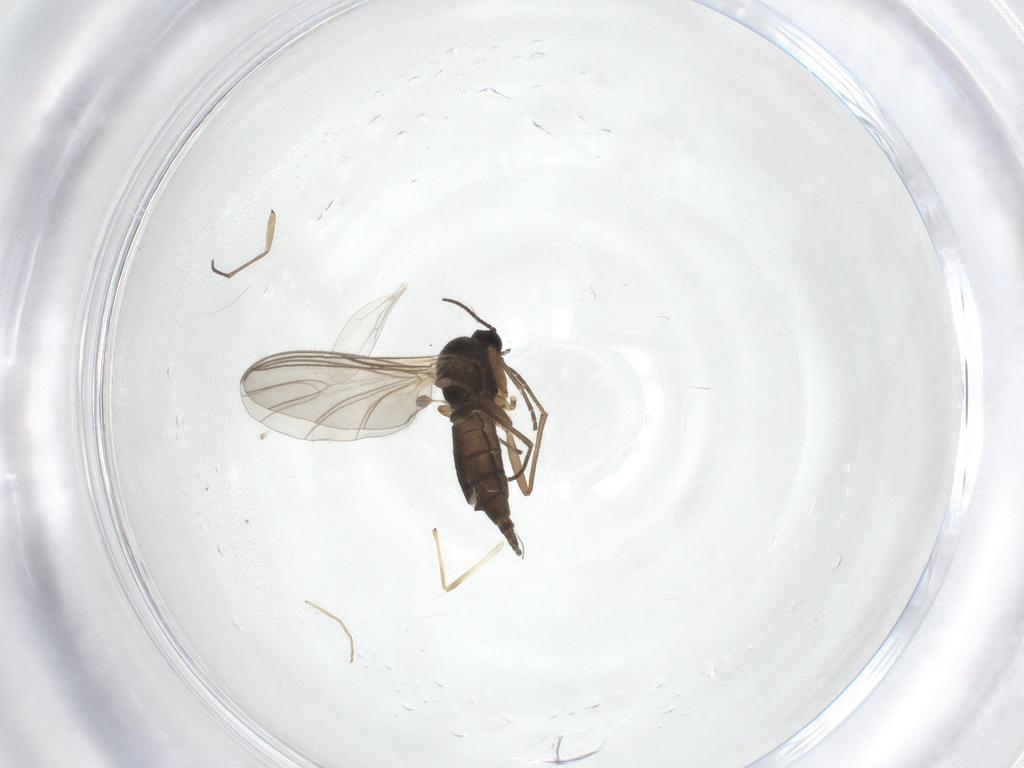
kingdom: Animalia
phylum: Arthropoda
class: Insecta
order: Diptera
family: Sciaridae
